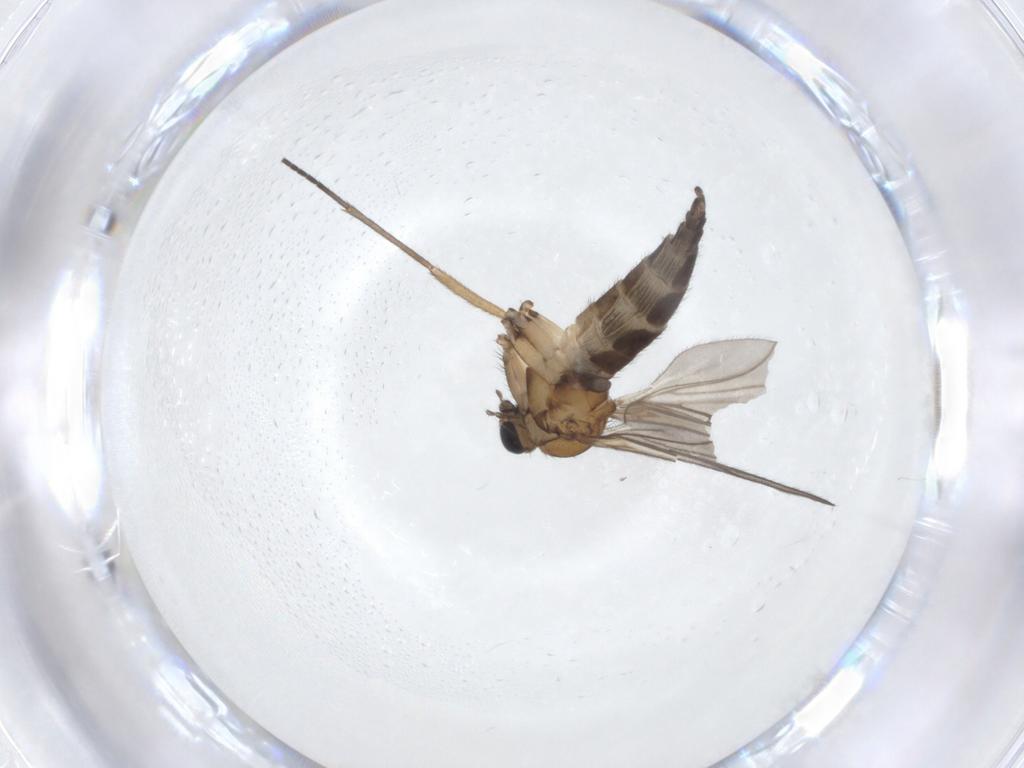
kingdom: Animalia
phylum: Arthropoda
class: Insecta
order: Diptera
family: Sciaridae
